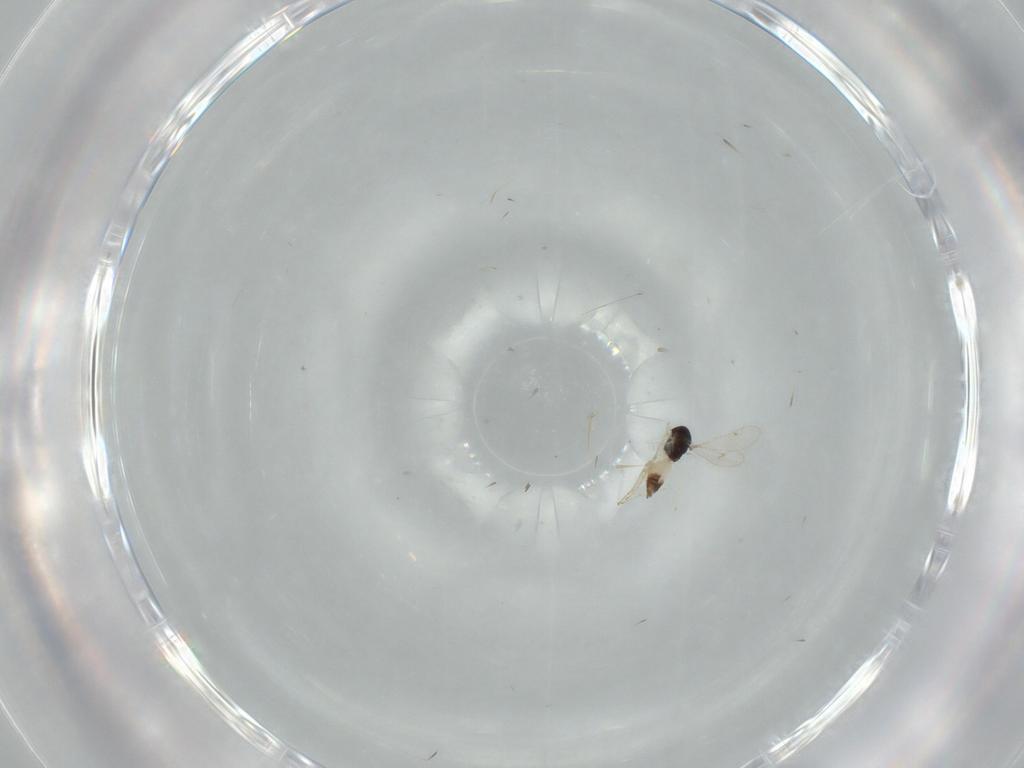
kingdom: Animalia
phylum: Arthropoda
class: Insecta
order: Hymenoptera
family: Eulophidae
